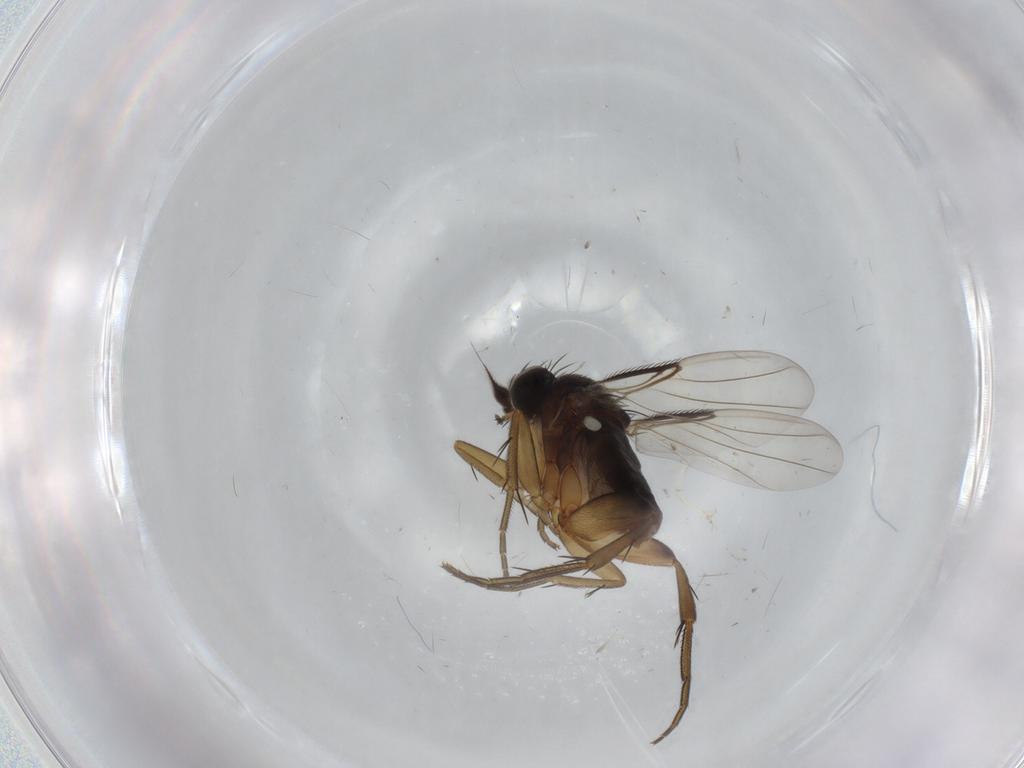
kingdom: Animalia
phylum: Arthropoda
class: Insecta
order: Diptera
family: Phoridae
